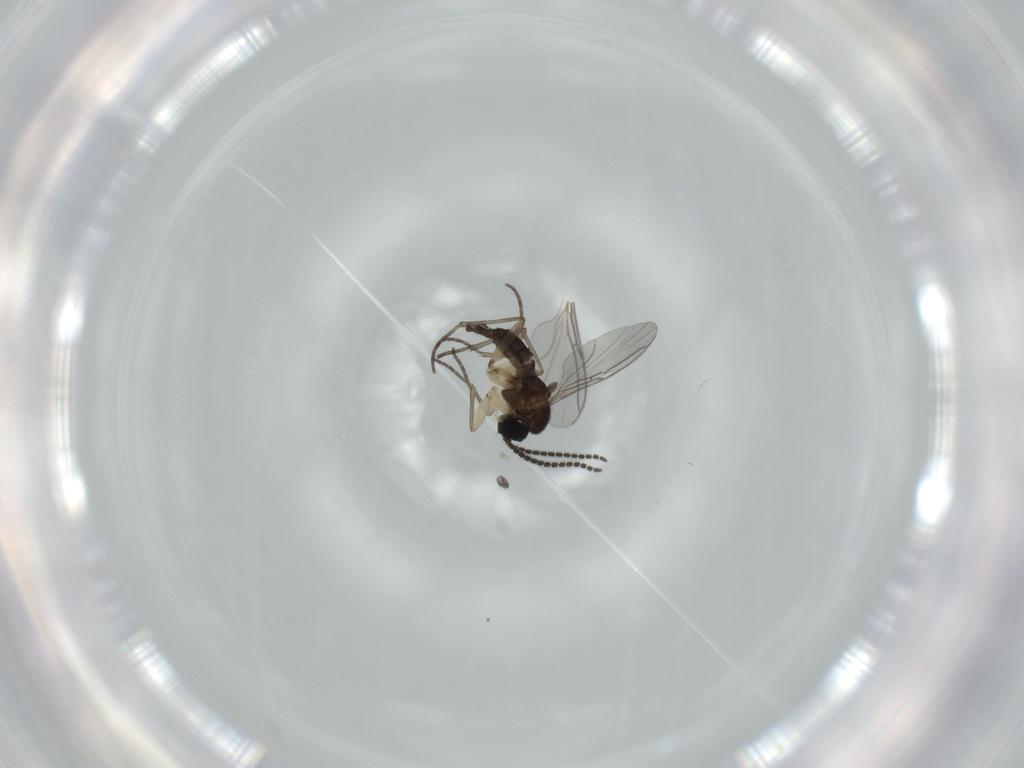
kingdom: Animalia
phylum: Arthropoda
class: Insecta
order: Diptera
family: Sciaridae
